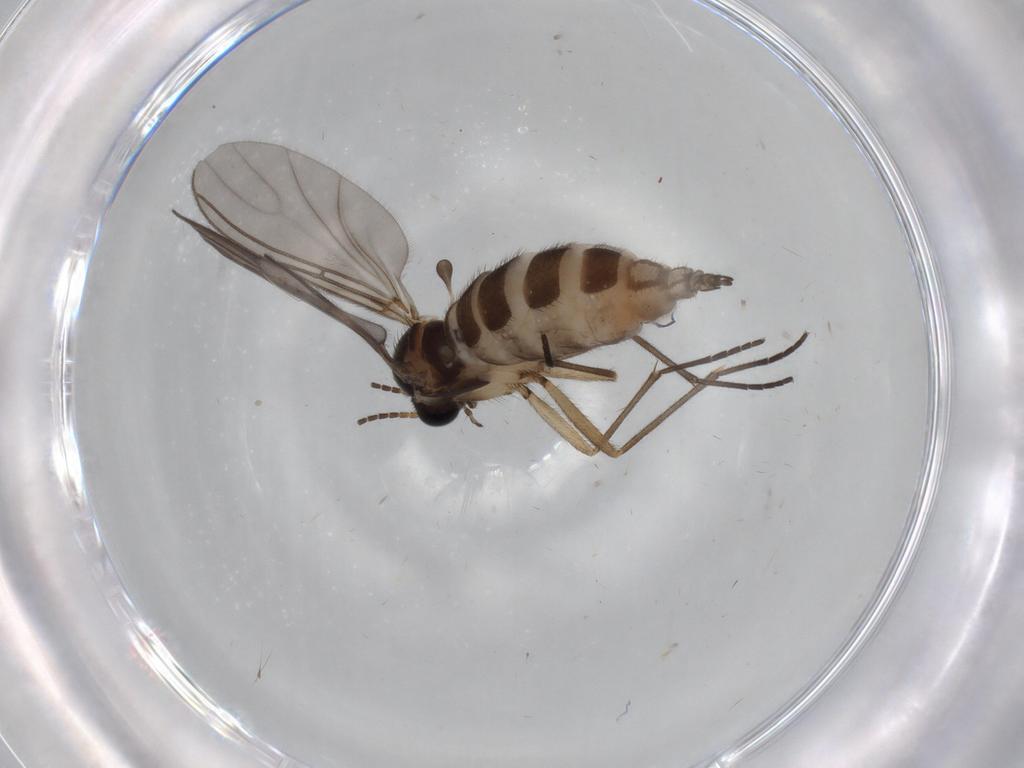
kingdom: Animalia
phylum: Arthropoda
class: Insecta
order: Diptera
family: Sciaridae
